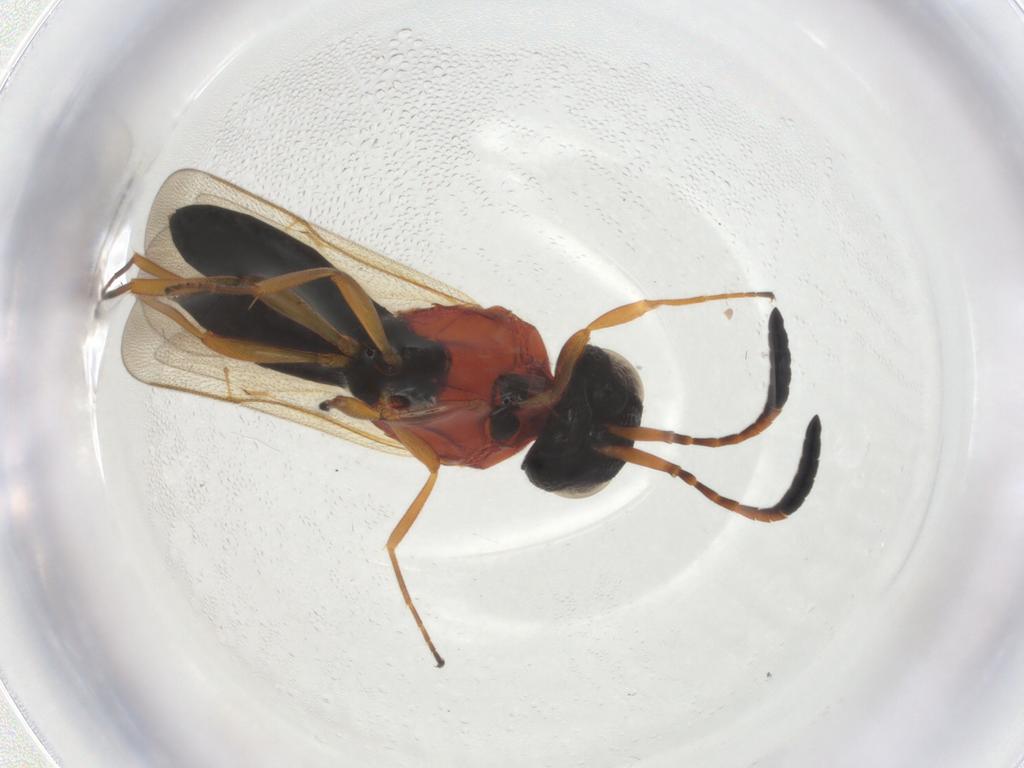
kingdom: Animalia
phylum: Arthropoda
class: Insecta
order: Hymenoptera
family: Scelionidae
